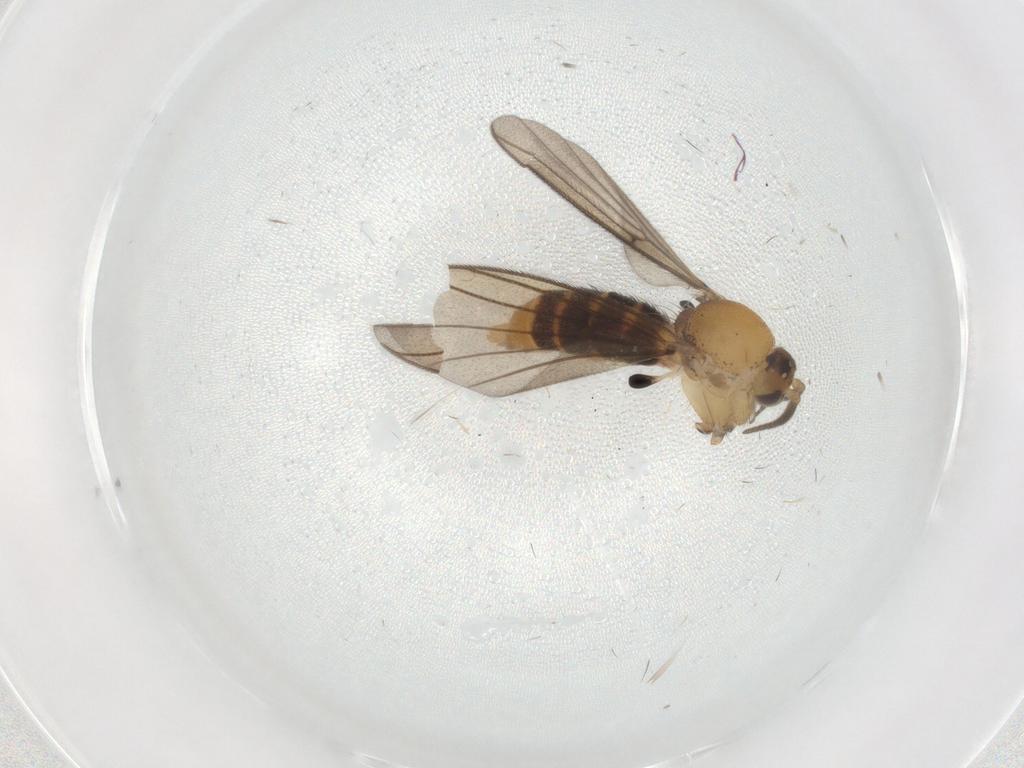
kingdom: Animalia
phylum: Arthropoda
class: Insecta
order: Diptera
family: Mycetophilidae
